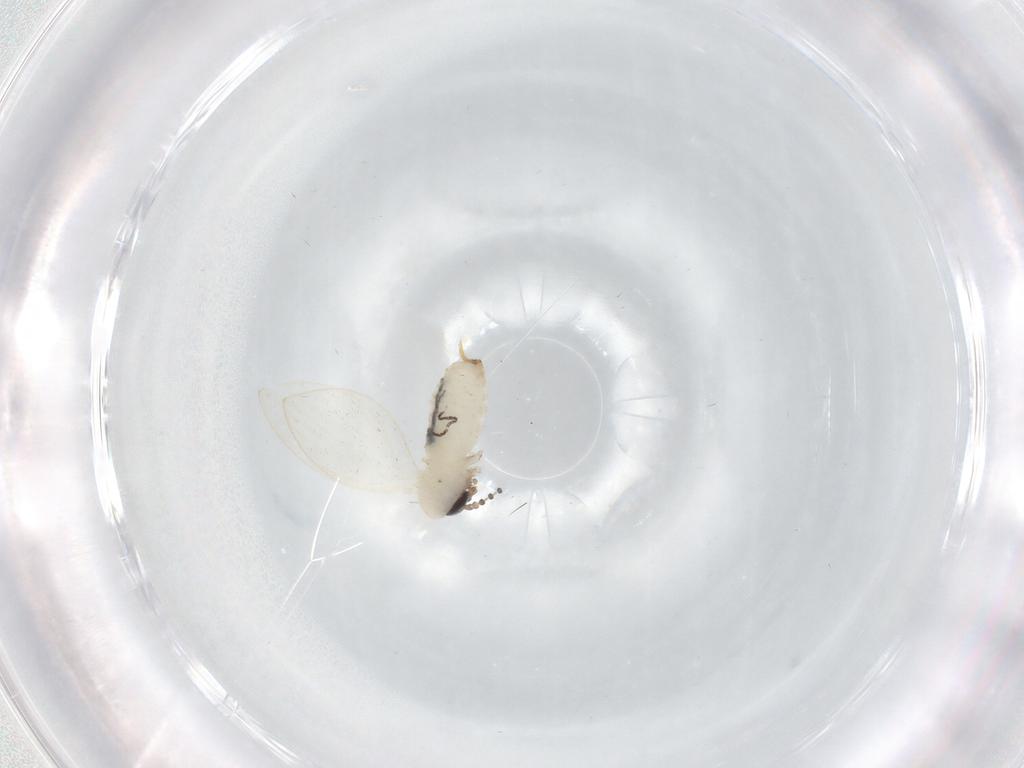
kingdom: Animalia
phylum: Arthropoda
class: Insecta
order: Diptera
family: Psychodidae
